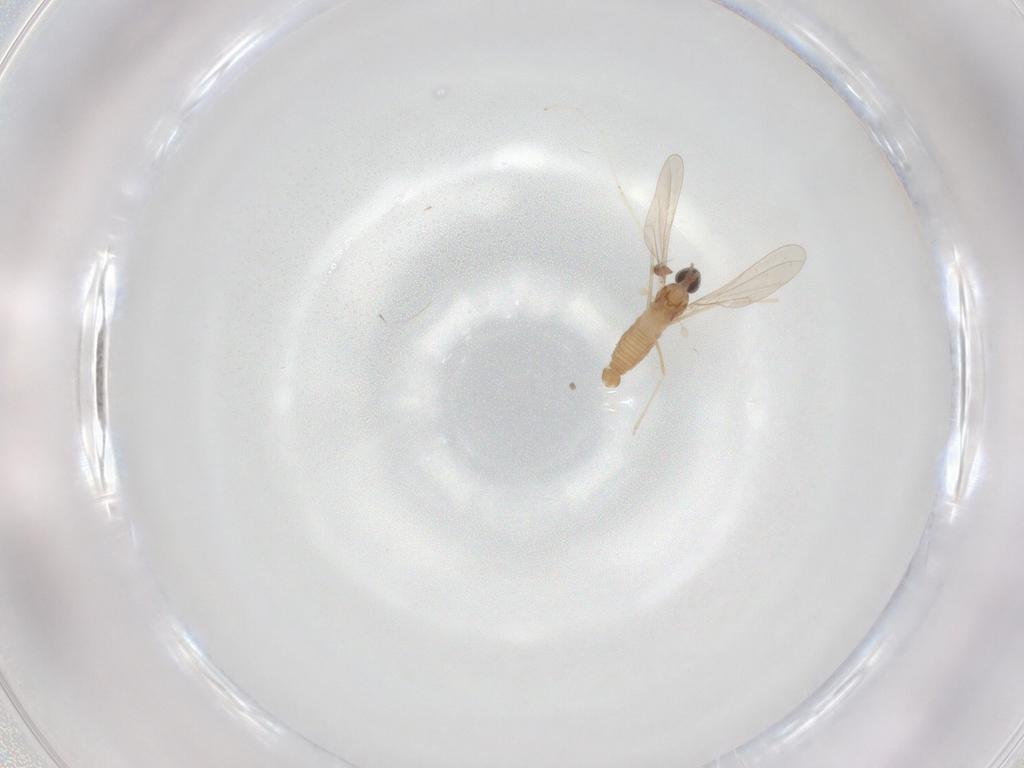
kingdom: Animalia
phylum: Arthropoda
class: Insecta
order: Diptera
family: Cecidomyiidae
